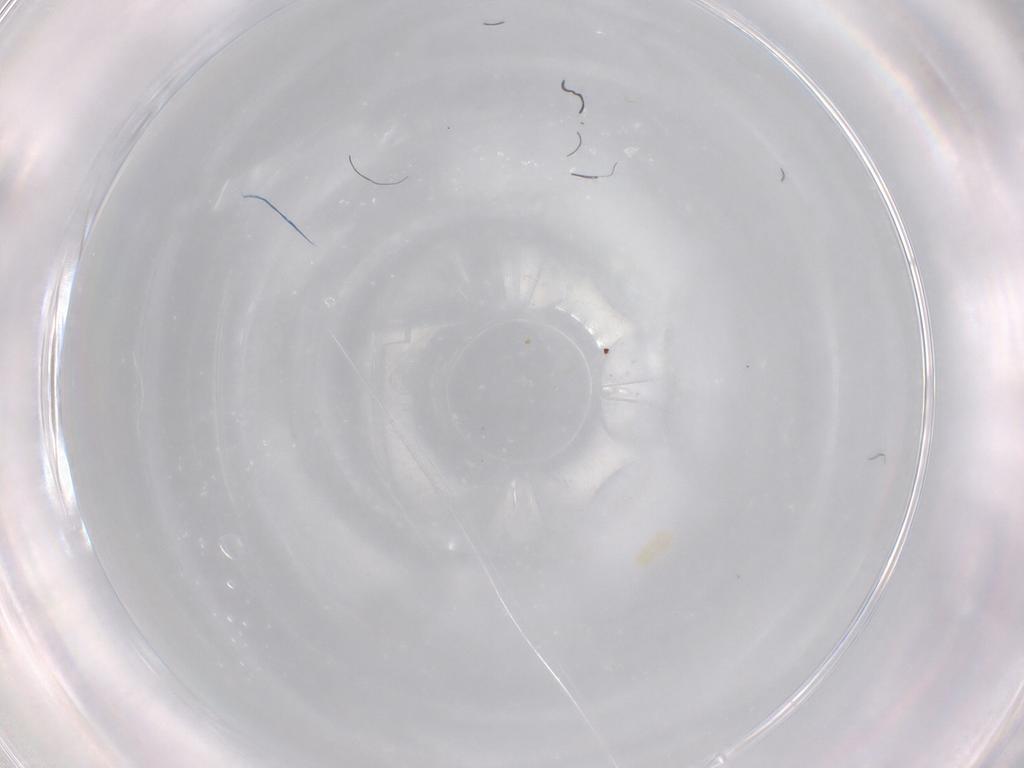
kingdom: Animalia
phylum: Arthropoda
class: Arachnida
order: Trombidiformes
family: Eupodidae
